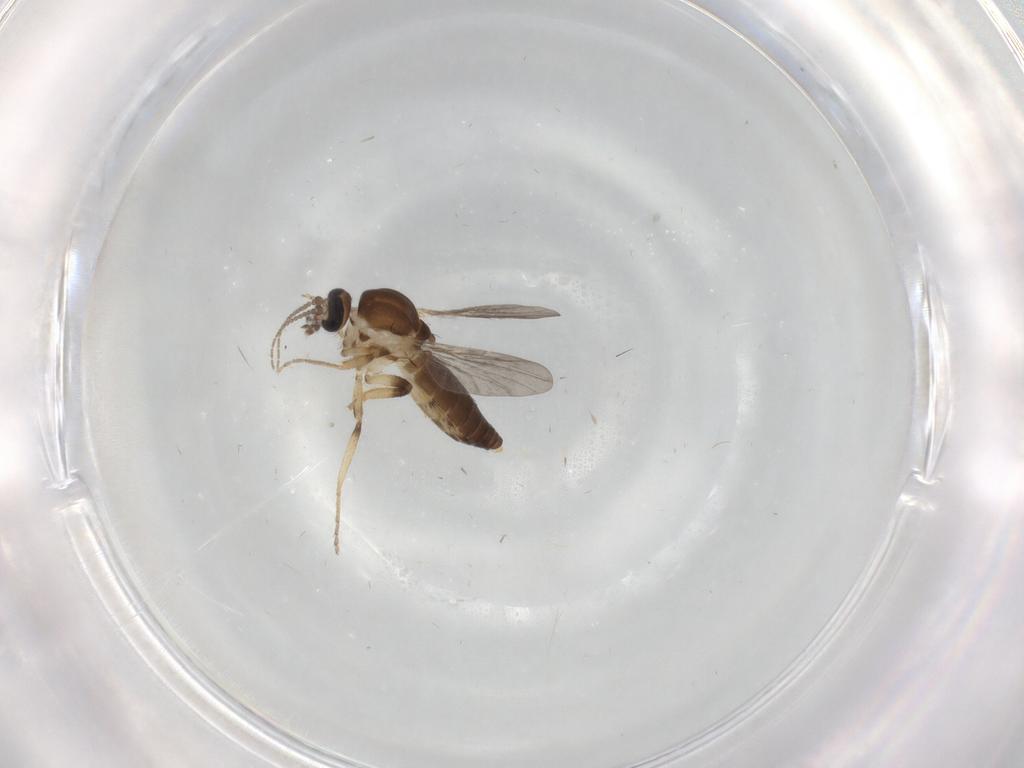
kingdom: Animalia
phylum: Arthropoda
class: Insecta
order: Diptera
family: Ceratopogonidae
